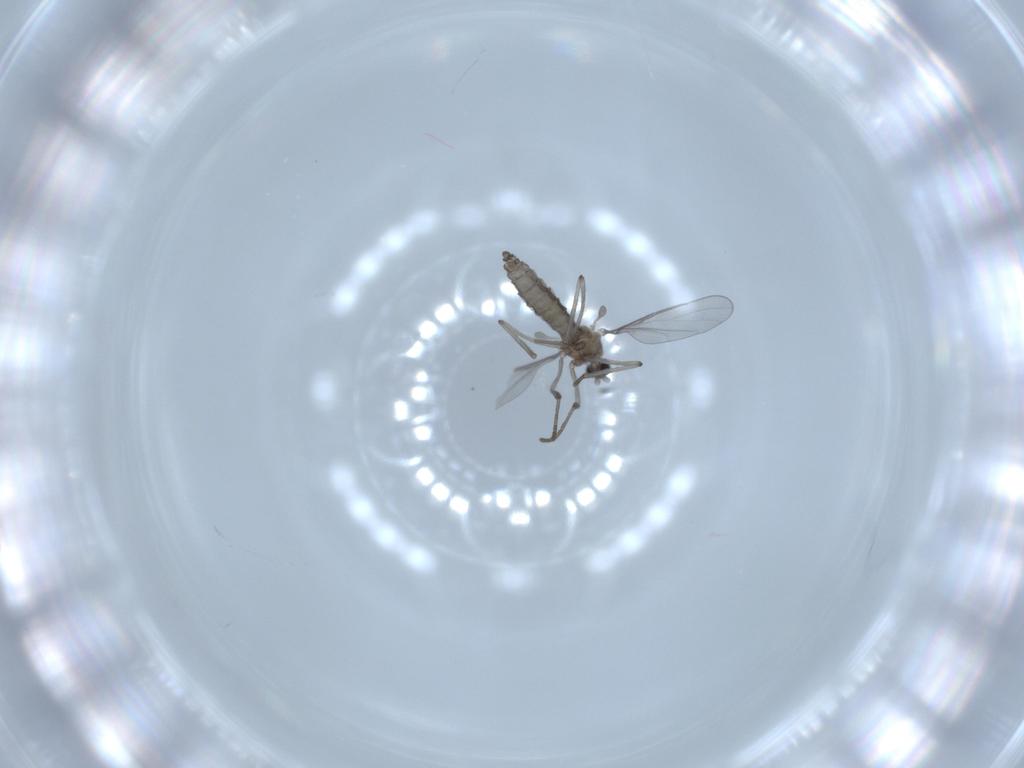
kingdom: Animalia
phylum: Arthropoda
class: Insecta
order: Diptera
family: Cecidomyiidae
